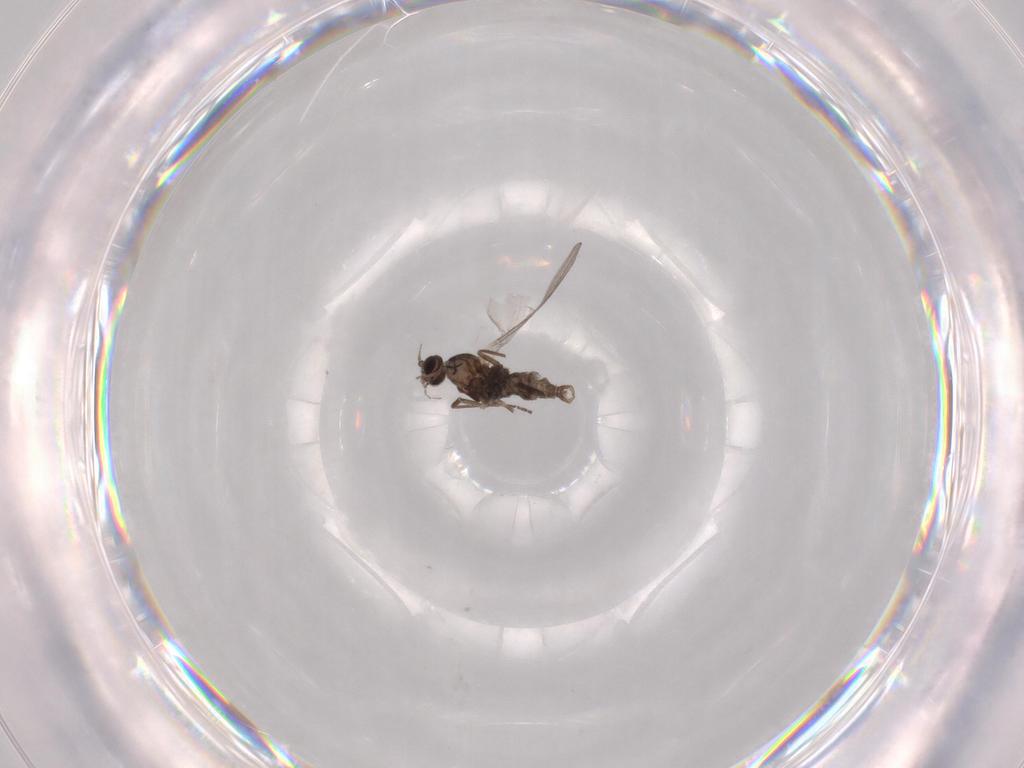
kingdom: Animalia
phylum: Arthropoda
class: Insecta
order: Diptera
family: Cecidomyiidae
